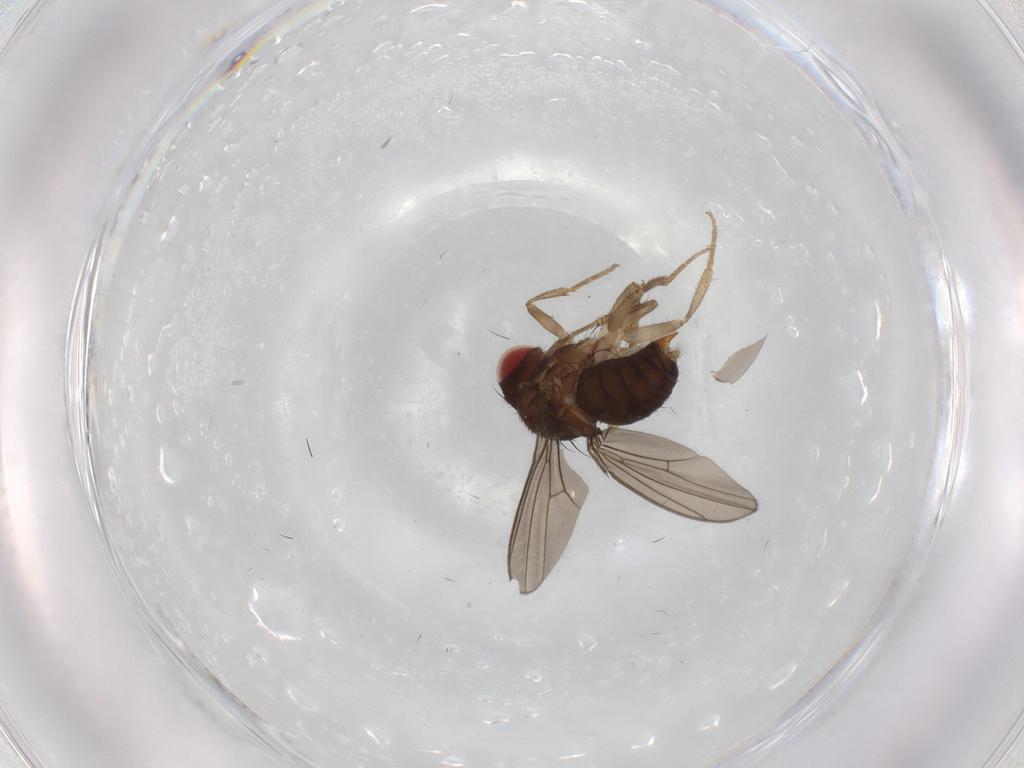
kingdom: Animalia
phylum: Arthropoda
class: Insecta
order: Diptera
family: Drosophilidae
